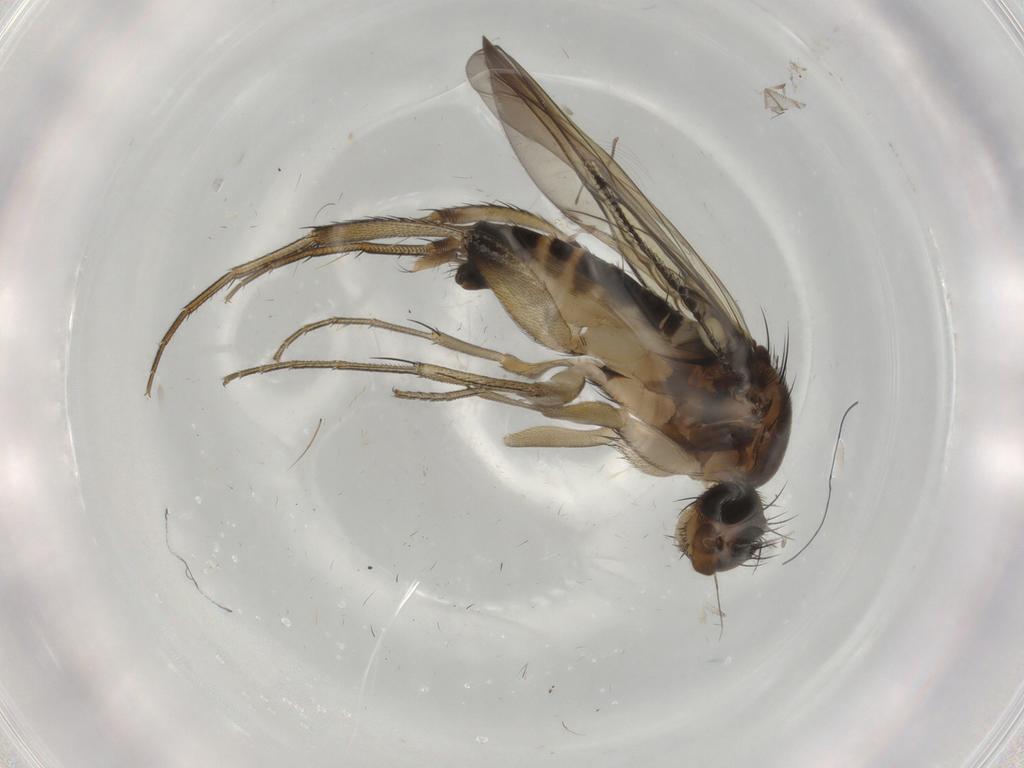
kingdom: Animalia
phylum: Arthropoda
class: Insecta
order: Diptera
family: Phoridae
